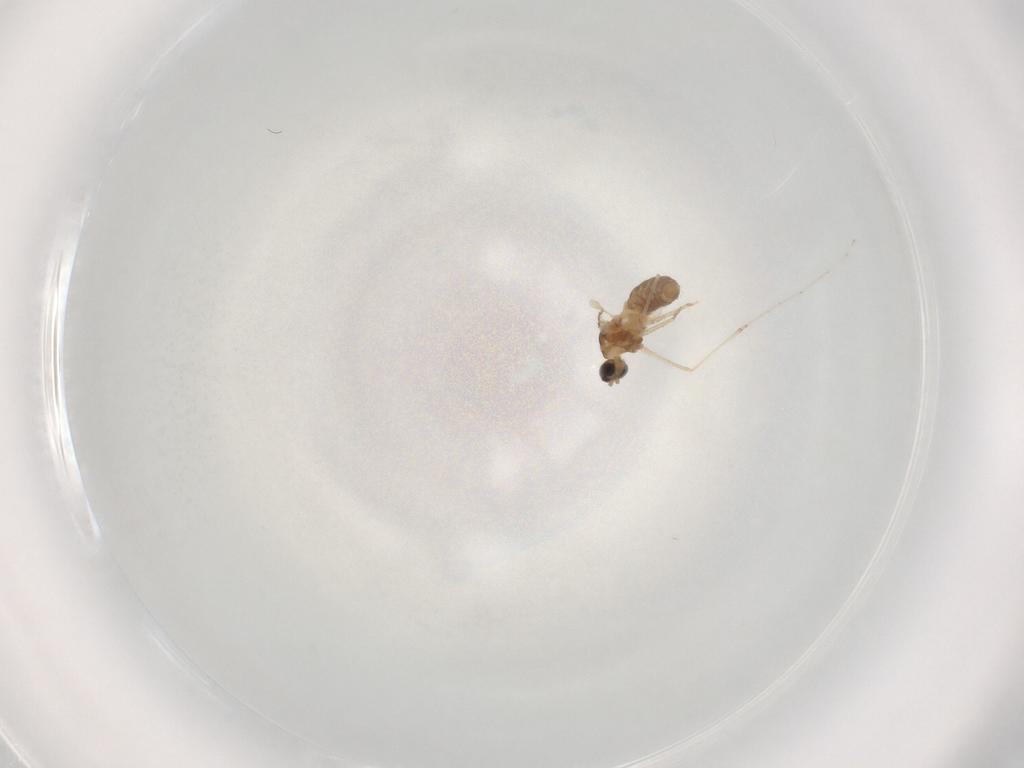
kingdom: Animalia
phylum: Arthropoda
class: Insecta
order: Diptera
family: Cecidomyiidae
